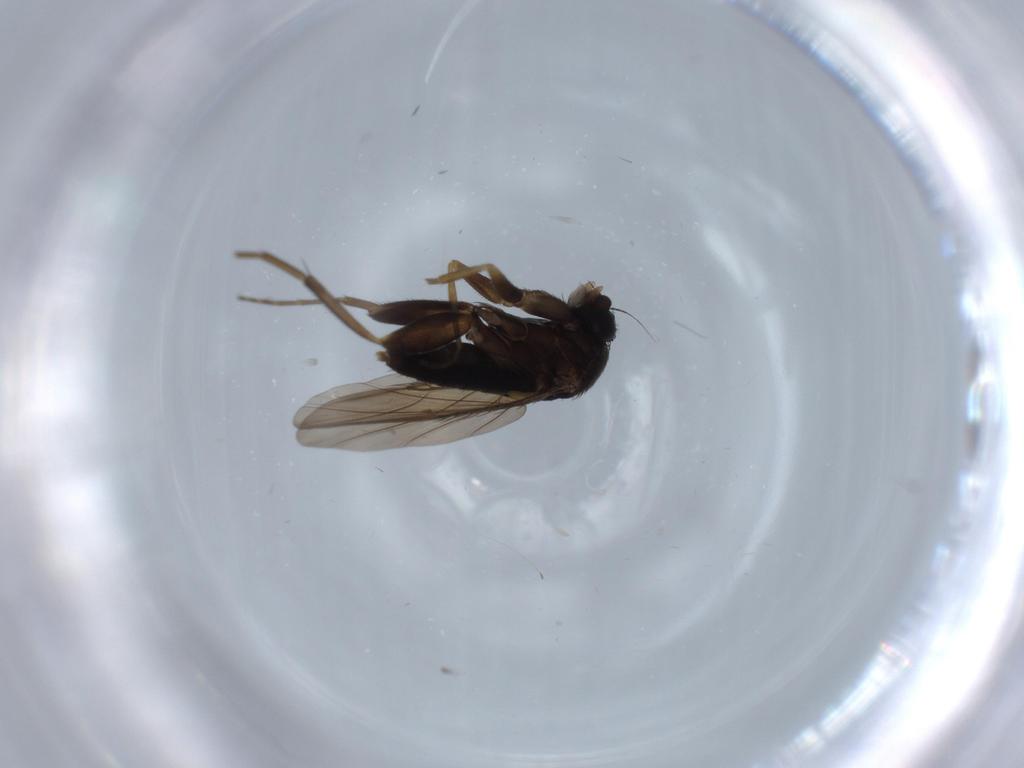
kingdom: Animalia
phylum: Arthropoda
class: Insecta
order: Diptera
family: Phoridae
